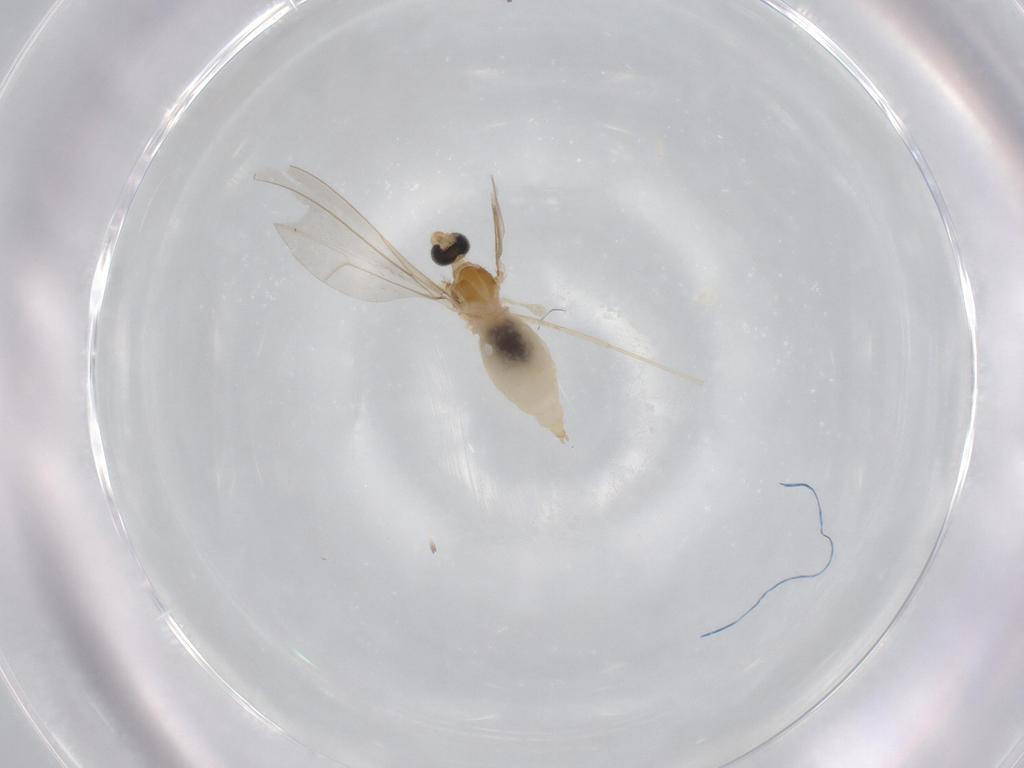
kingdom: Animalia
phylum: Arthropoda
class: Insecta
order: Diptera
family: Cecidomyiidae
